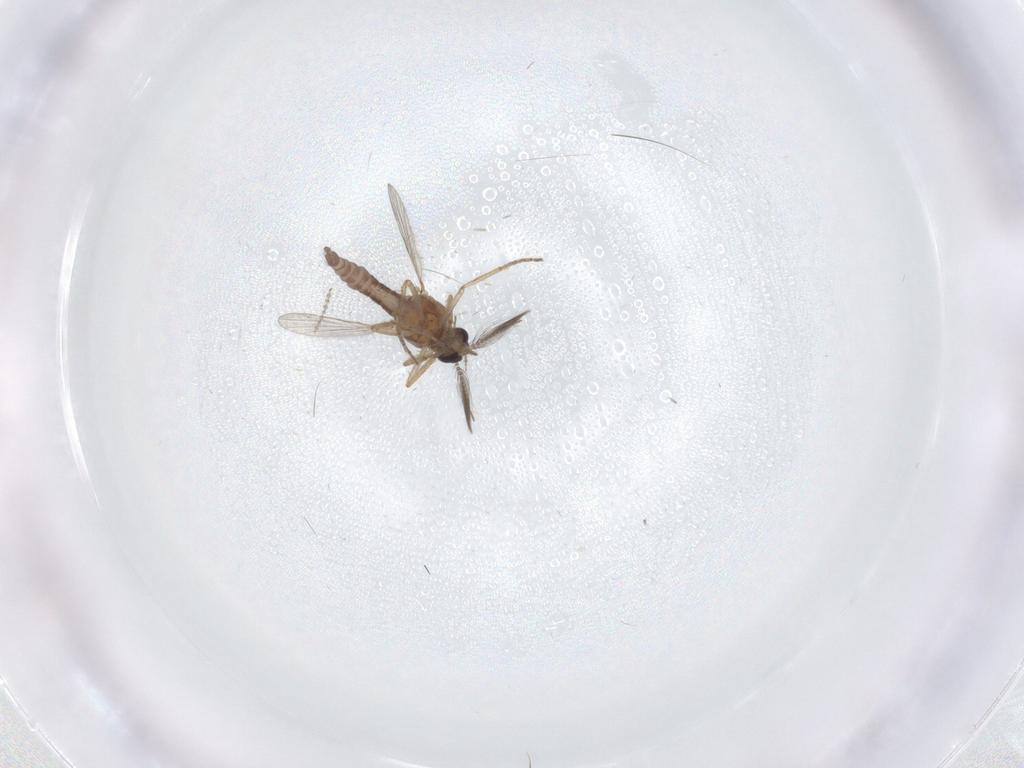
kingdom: Animalia
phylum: Arthropoda
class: Insecta
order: Diptera
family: Ceratopogonidae
